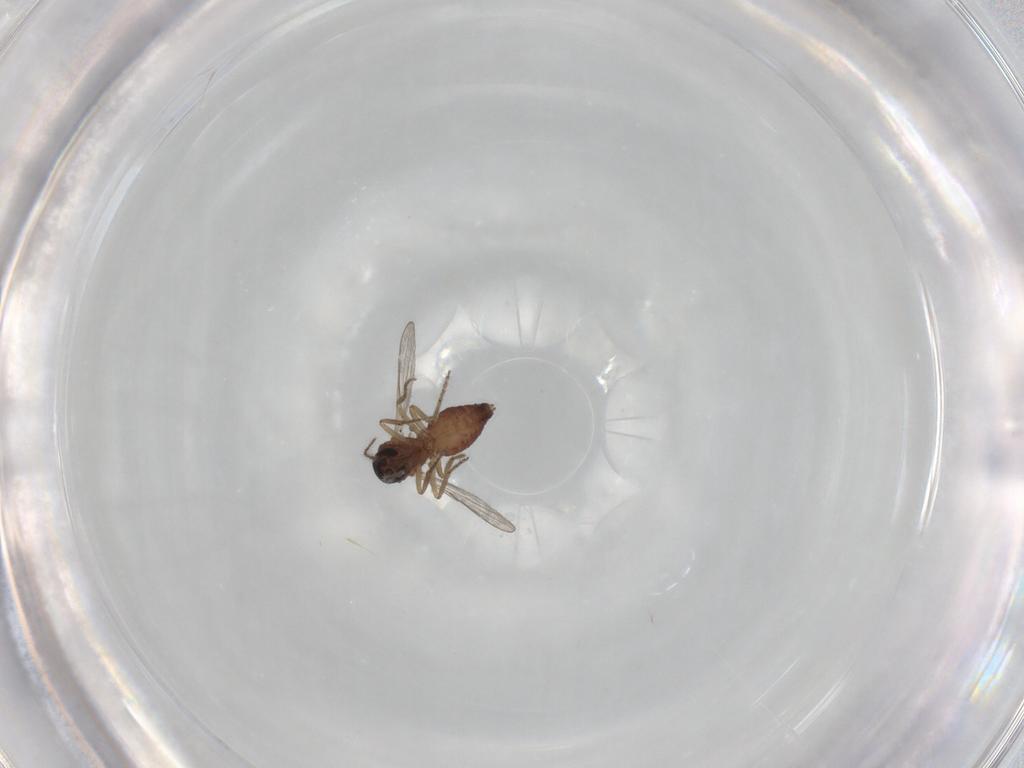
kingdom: Animalia
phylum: Arthropoda
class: Insecta
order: Diptera
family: Ceratopogonidae
